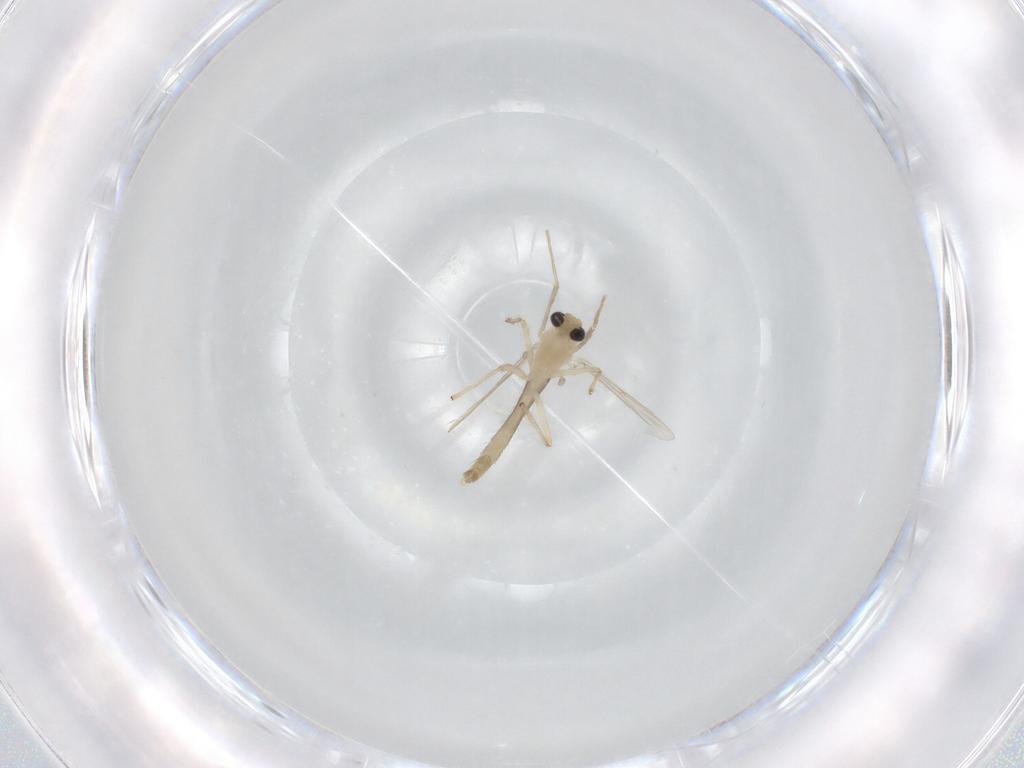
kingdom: Animalia
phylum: Arthropoda
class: Insecta
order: Diptera
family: Chironomidae
